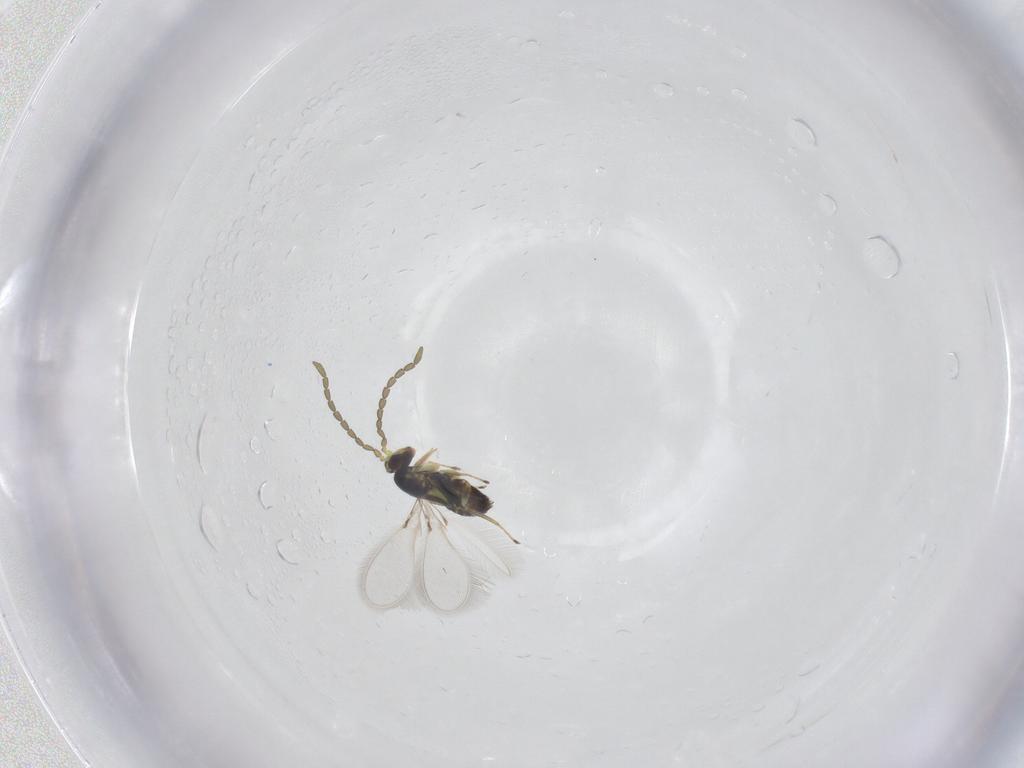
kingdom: Animalia
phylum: Arthropoda
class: Insecta
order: Hymenoptera
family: Mymaridae
